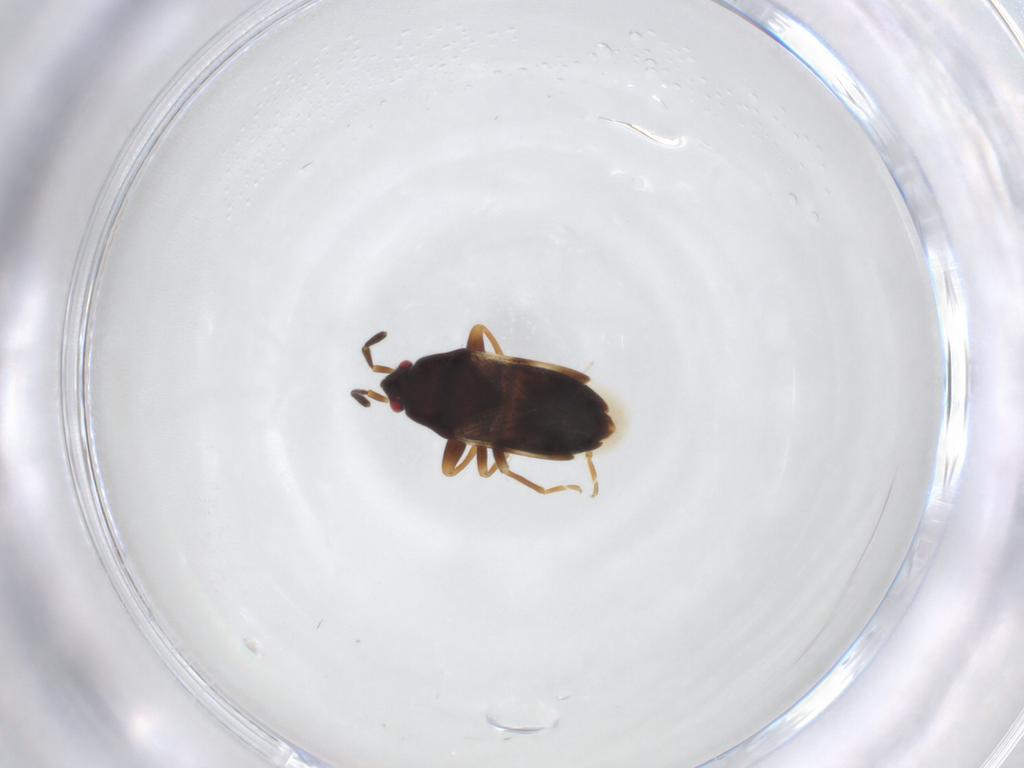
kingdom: Animalia
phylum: Arthropoda
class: Insecta
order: Hemiptera
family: Rhyparochromidae
